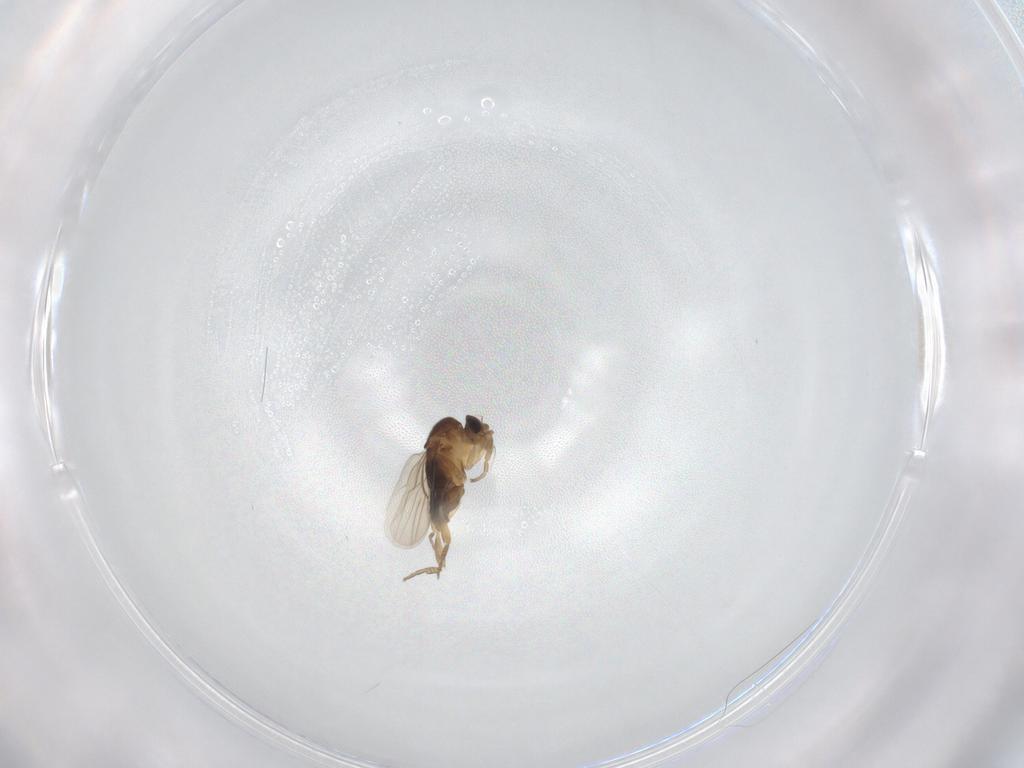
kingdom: Animalia
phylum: Arthropoda
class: Insecta
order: Diptera
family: Phoridae
